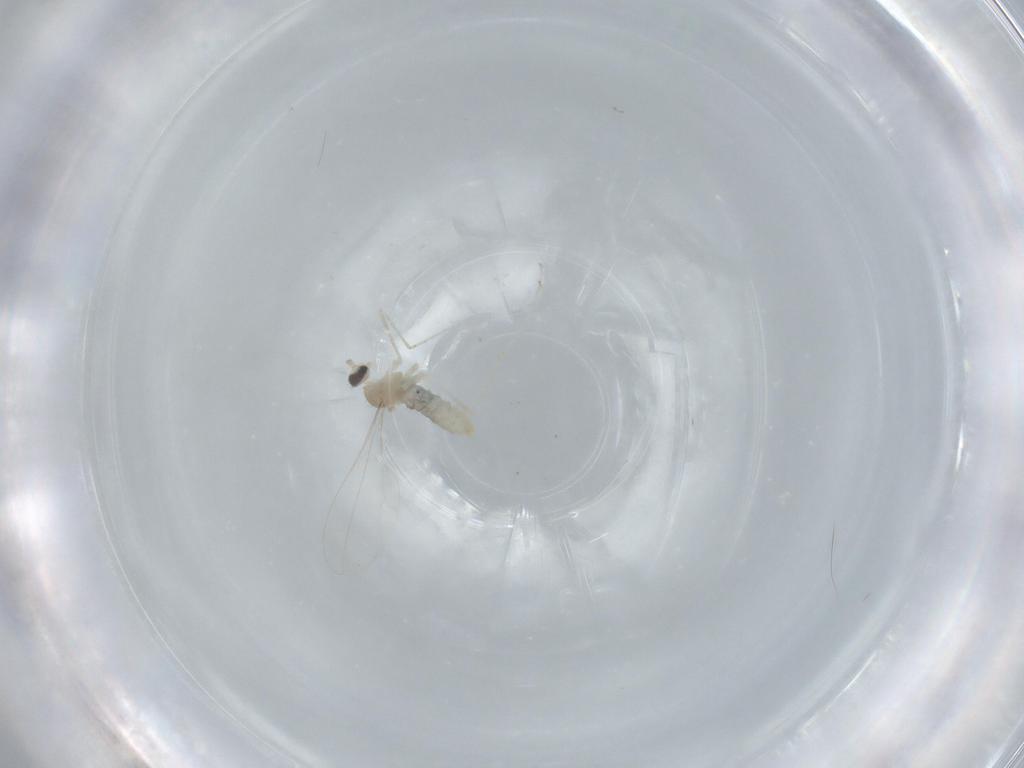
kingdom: Animalia
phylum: Arthropoda
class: Insecta
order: Diptera
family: Cecidomyiidae
